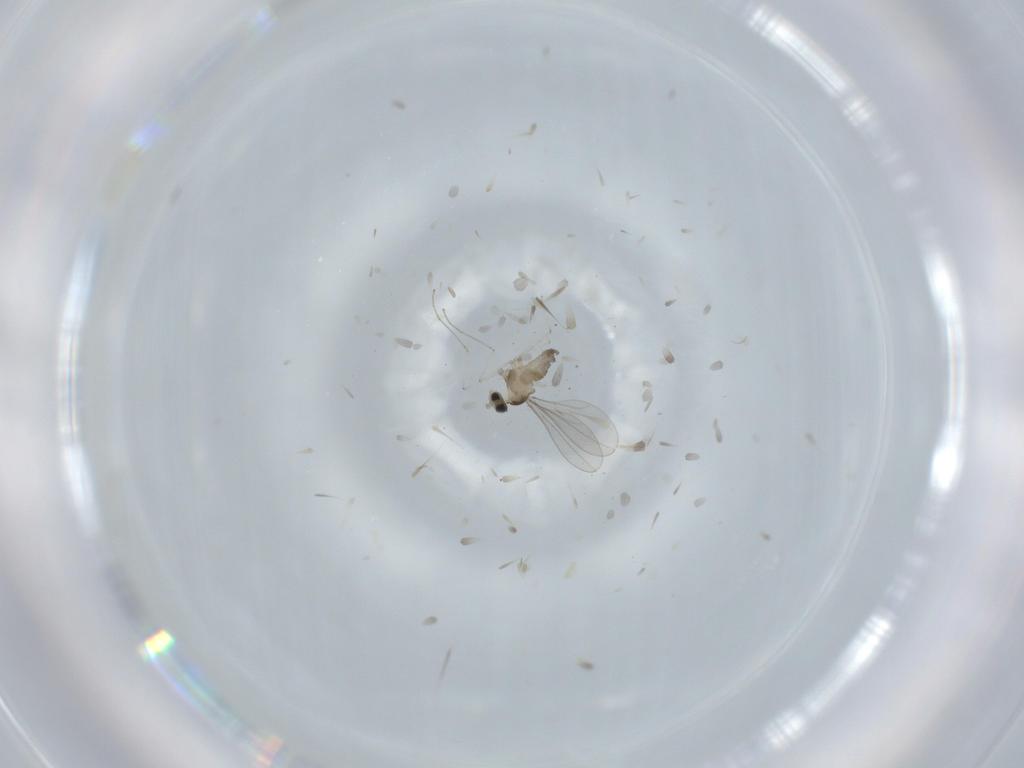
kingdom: Animalia
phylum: Arthropoda
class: Insecta
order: Diptera
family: Cecidomyiidae
